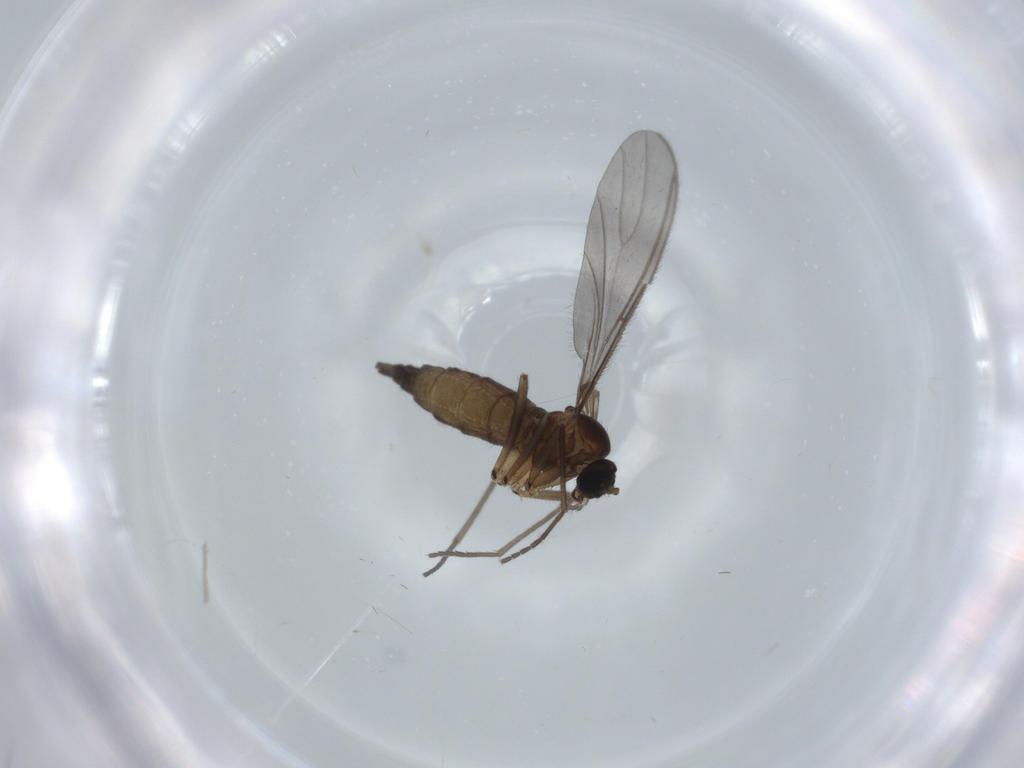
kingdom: Animalia
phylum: Arthropoda
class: Insecta
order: Diptera
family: Sciaridae
